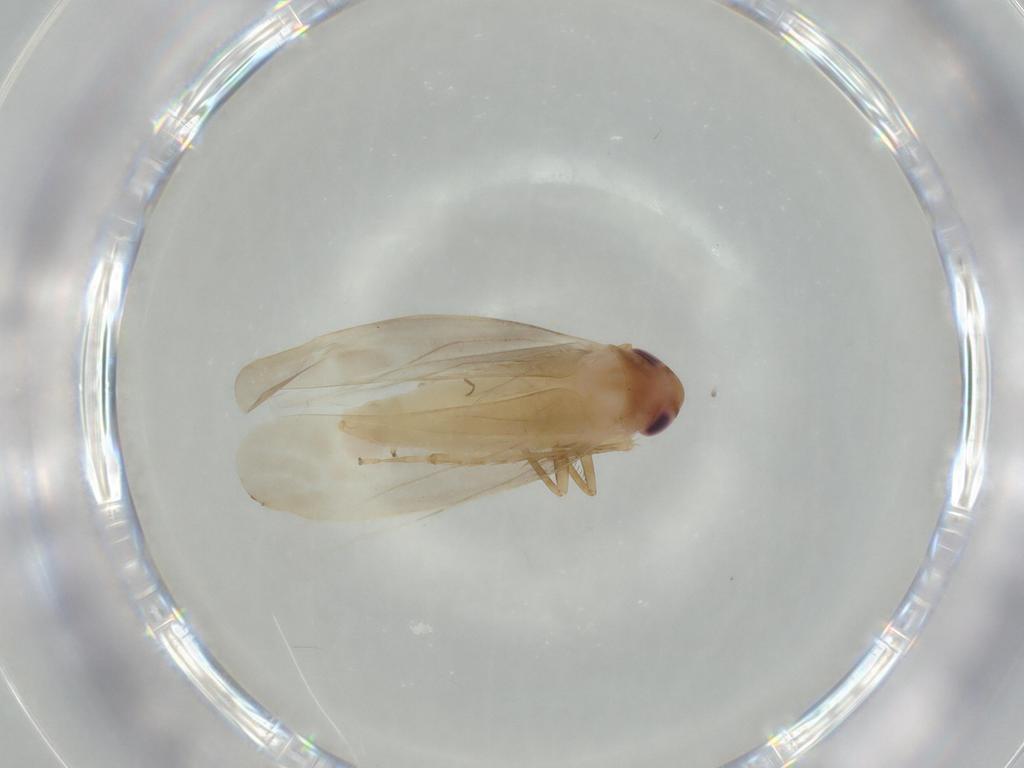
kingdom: Animalia
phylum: Arthropoda
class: Insecta
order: Hemiptera
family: Cicadellidae
